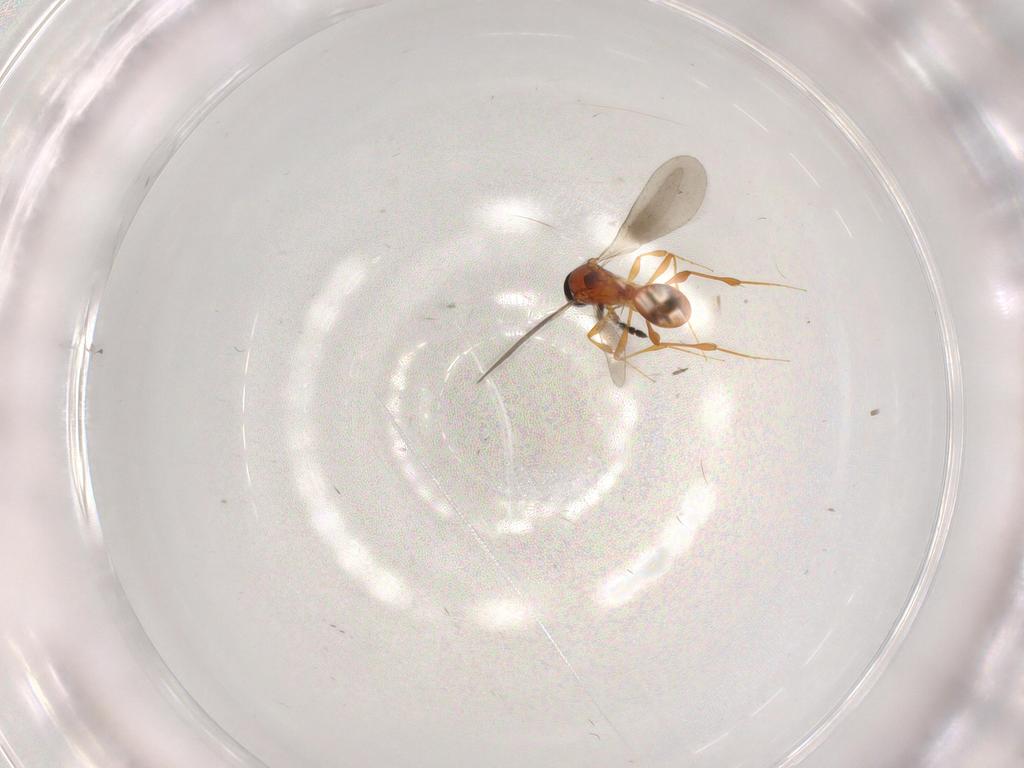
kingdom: Animalia
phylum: Arthropoda
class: Insecta
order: Hymenoptera
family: Platygastridae
